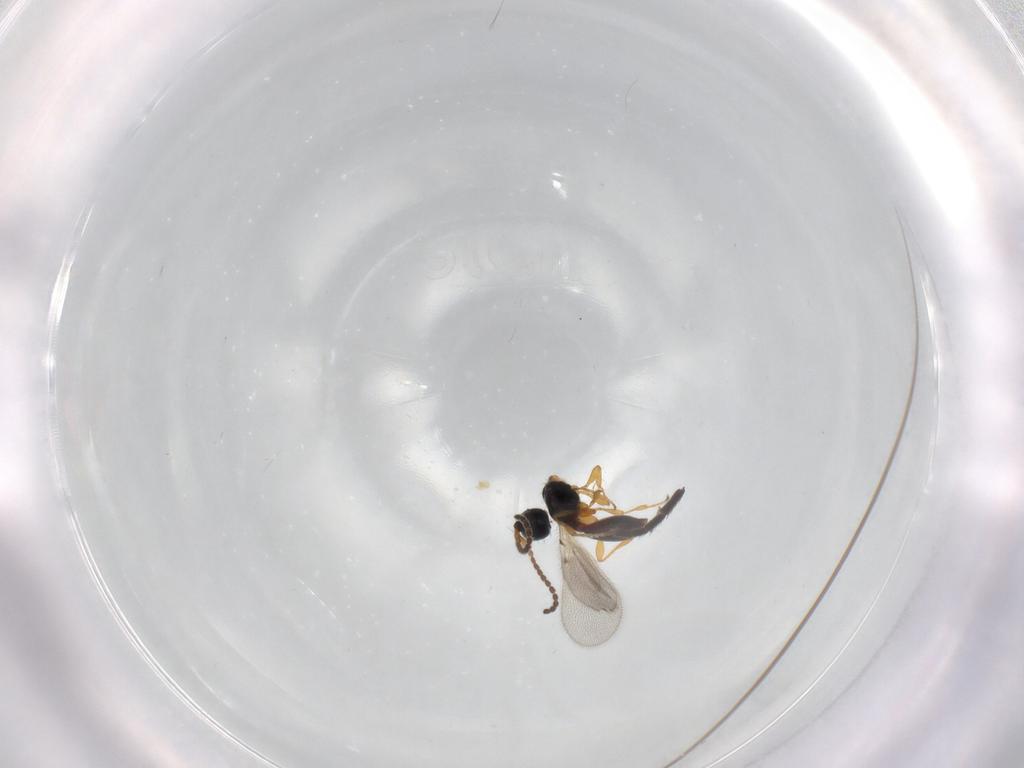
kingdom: Animalia
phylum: Arthropoda
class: Insecta
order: Hymenoptera
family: Diapriidae
